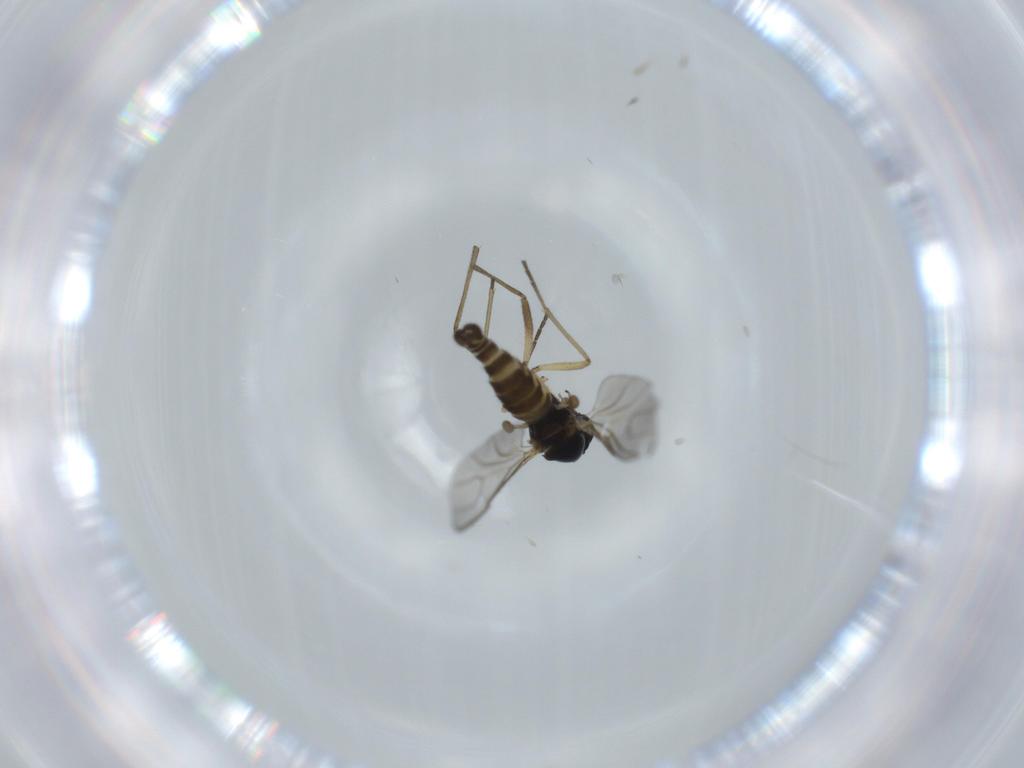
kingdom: Animalia
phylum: Arthropoda
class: Insecta
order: Diptera
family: Sciaridae
